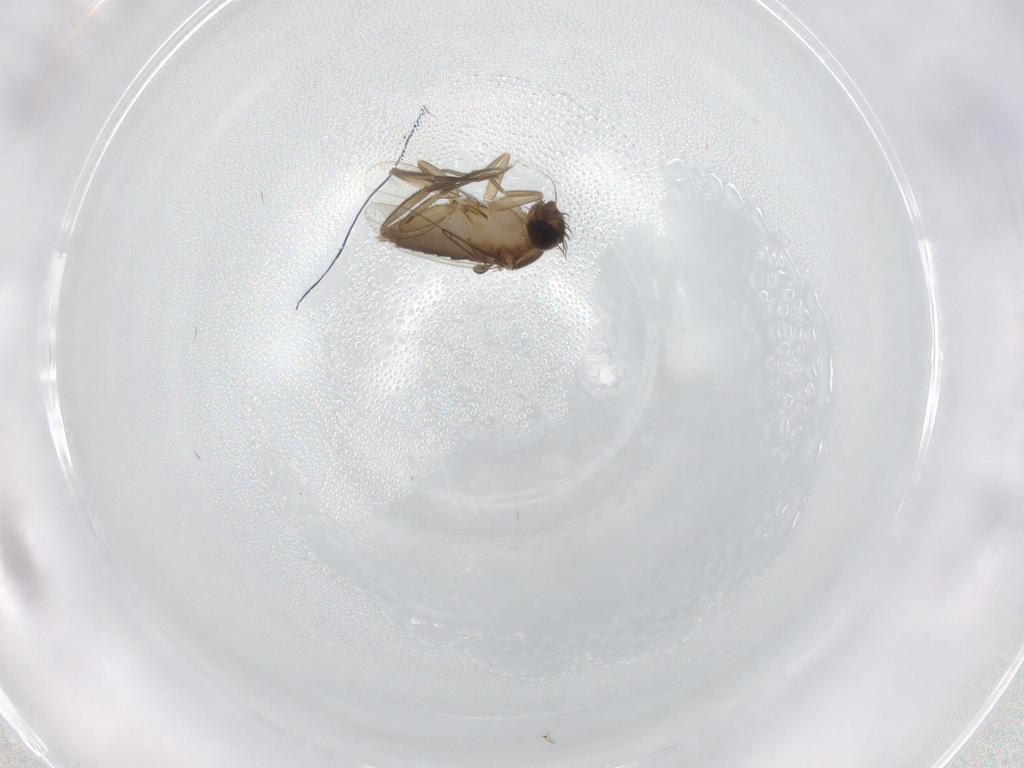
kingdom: Animalia
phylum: Arthropoda
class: Insecta
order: Diptera
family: Phoridae
